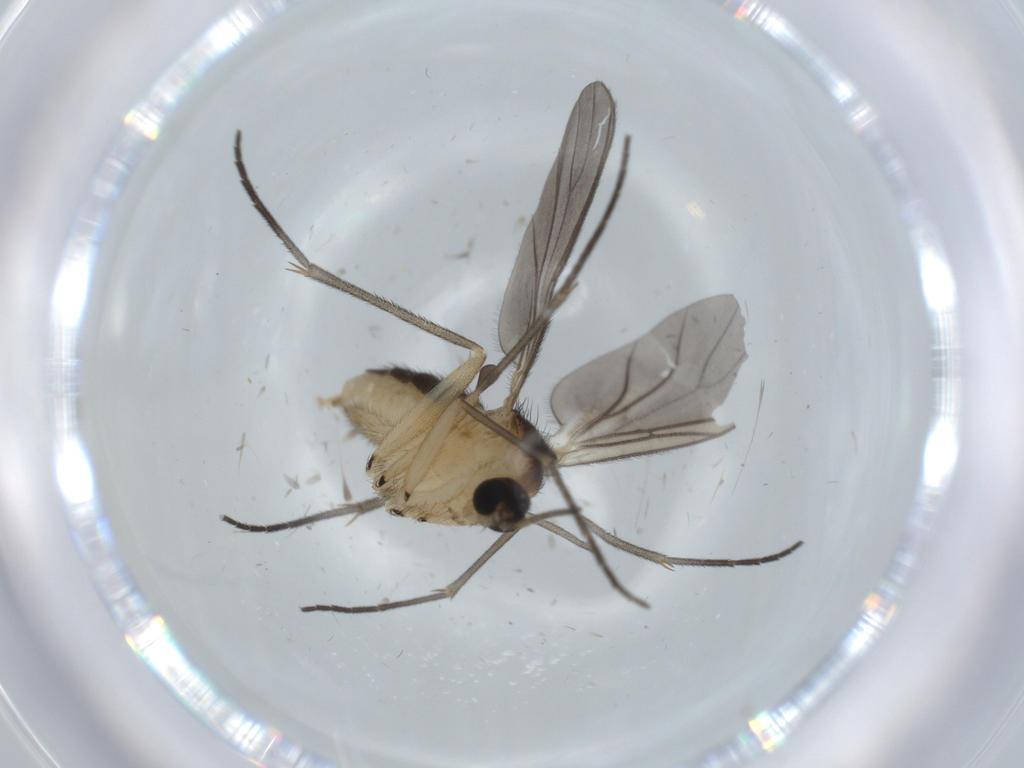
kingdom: Animalia
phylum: Arthropoda
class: Insecta
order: Diptera
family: Sciaridae
